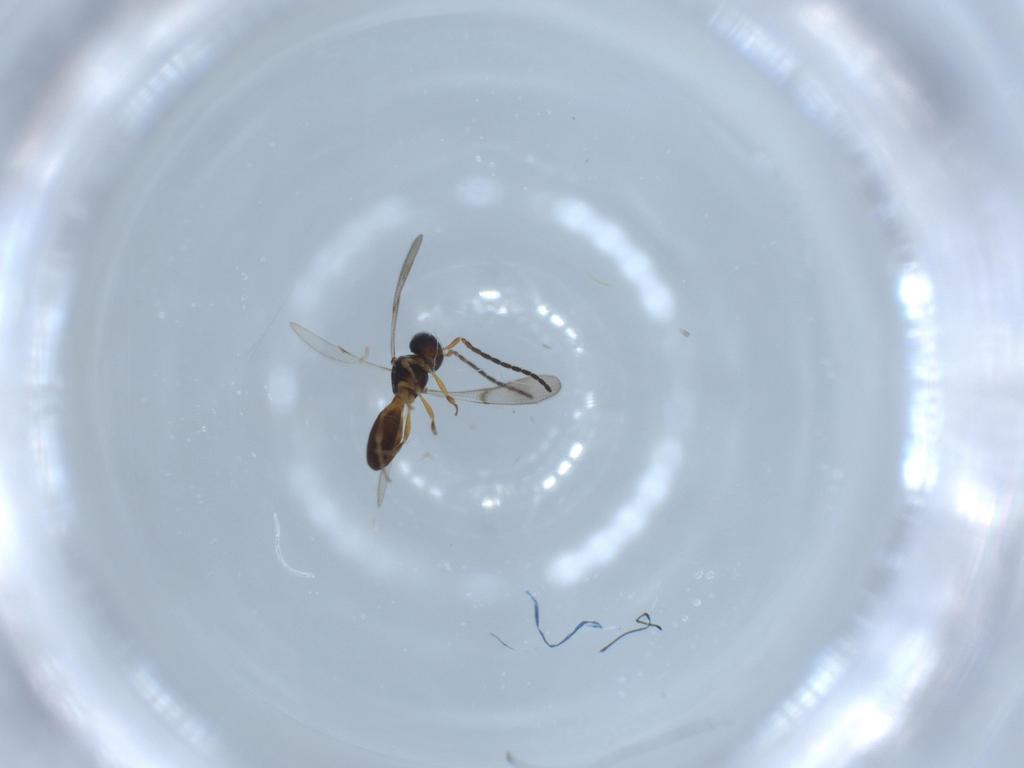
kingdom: Animalia
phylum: Arthropoda
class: Insecta
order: Hymenoptera
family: Scelionidae
